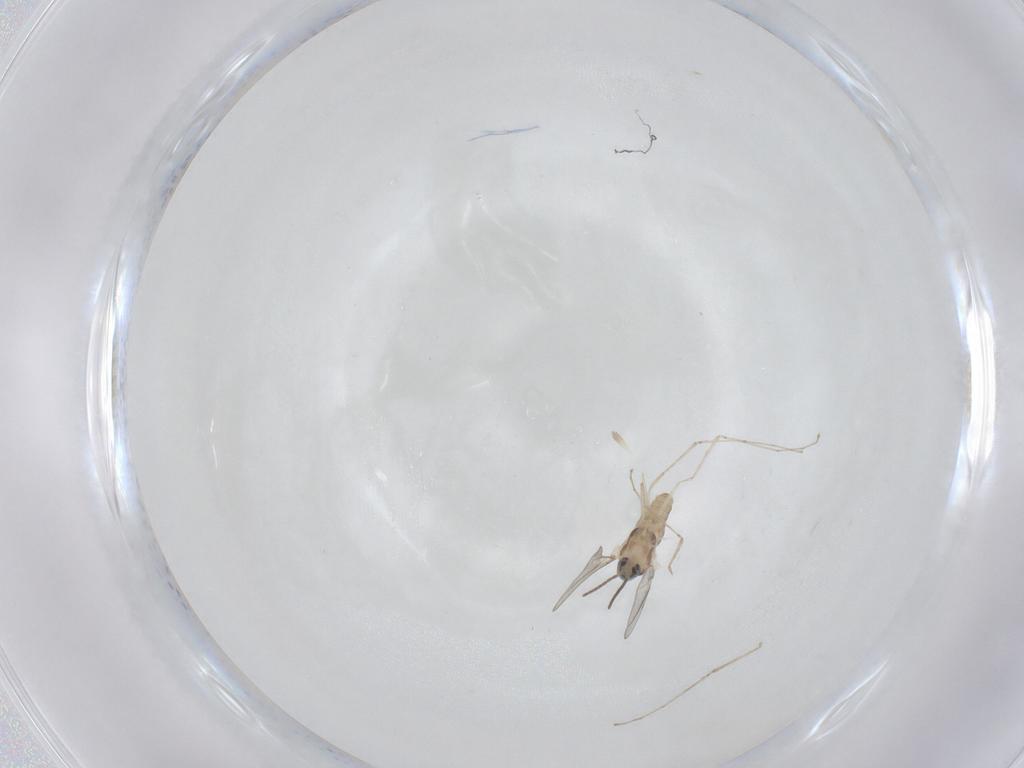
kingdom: Animalia
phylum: Arthropoda
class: Insecta
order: Diptera
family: Cecidomyiidae
